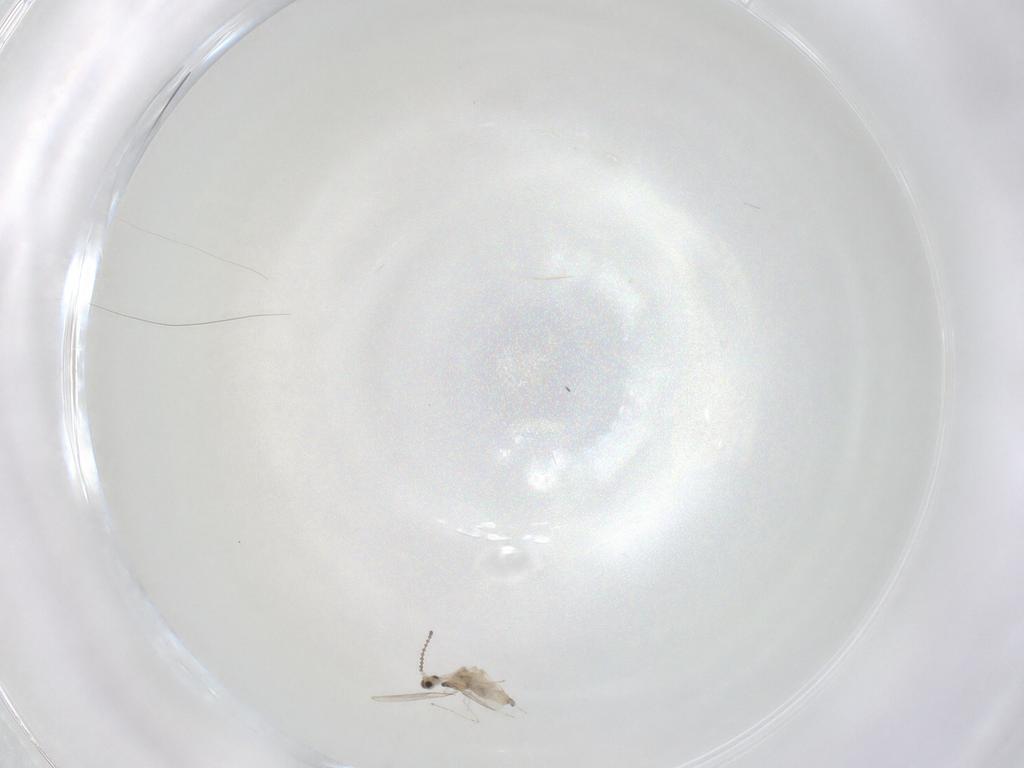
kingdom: Animalia
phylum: Arthropoda
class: Insecta
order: Diptera
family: Cecidomyiidae
